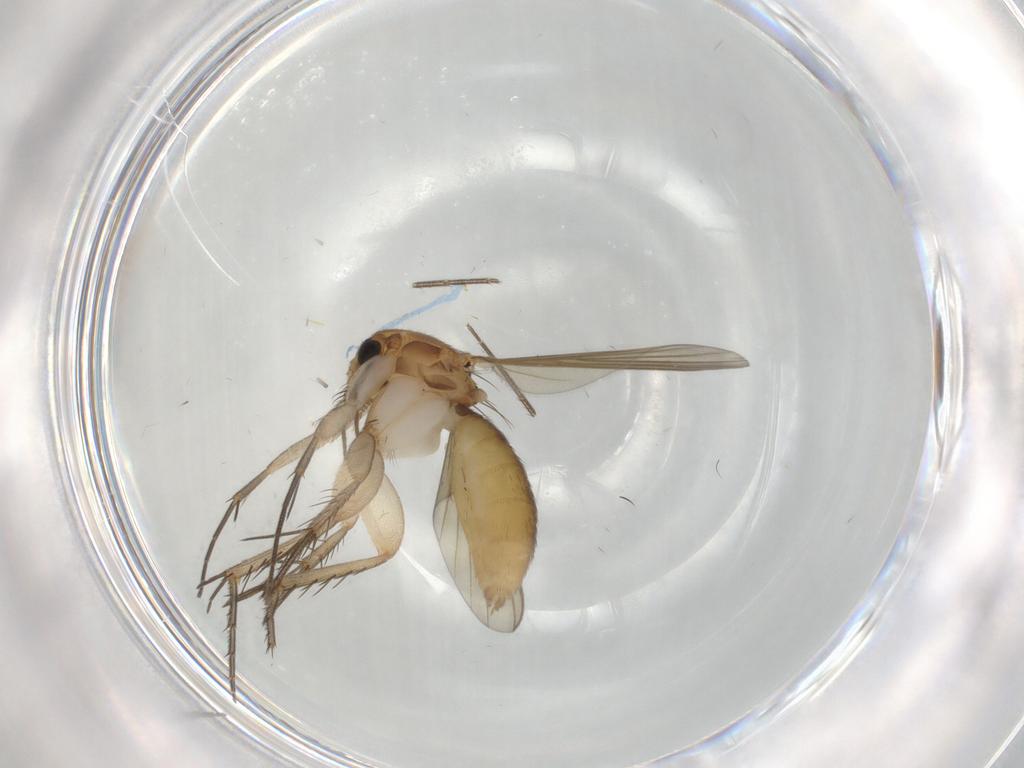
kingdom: Animalia
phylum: Arthropoda
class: Insecta
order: Diptera
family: Mycetophilidae
